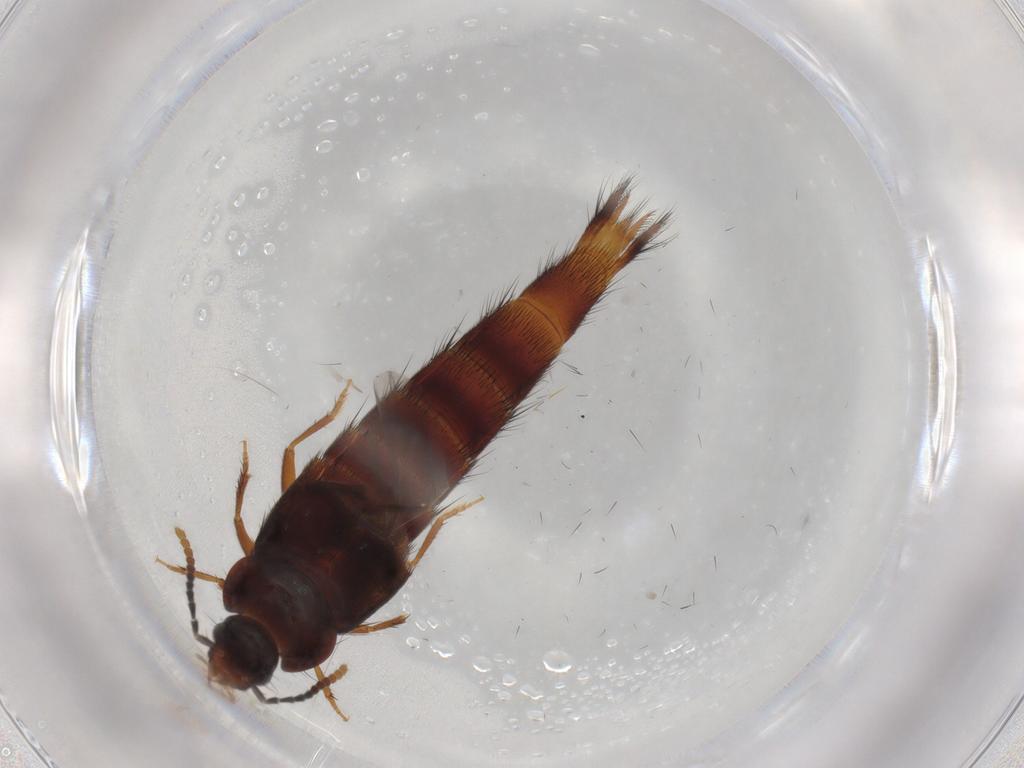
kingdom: Animalia
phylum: Arthropoda
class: Insecta
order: Coleoptera
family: Staphylinidae
